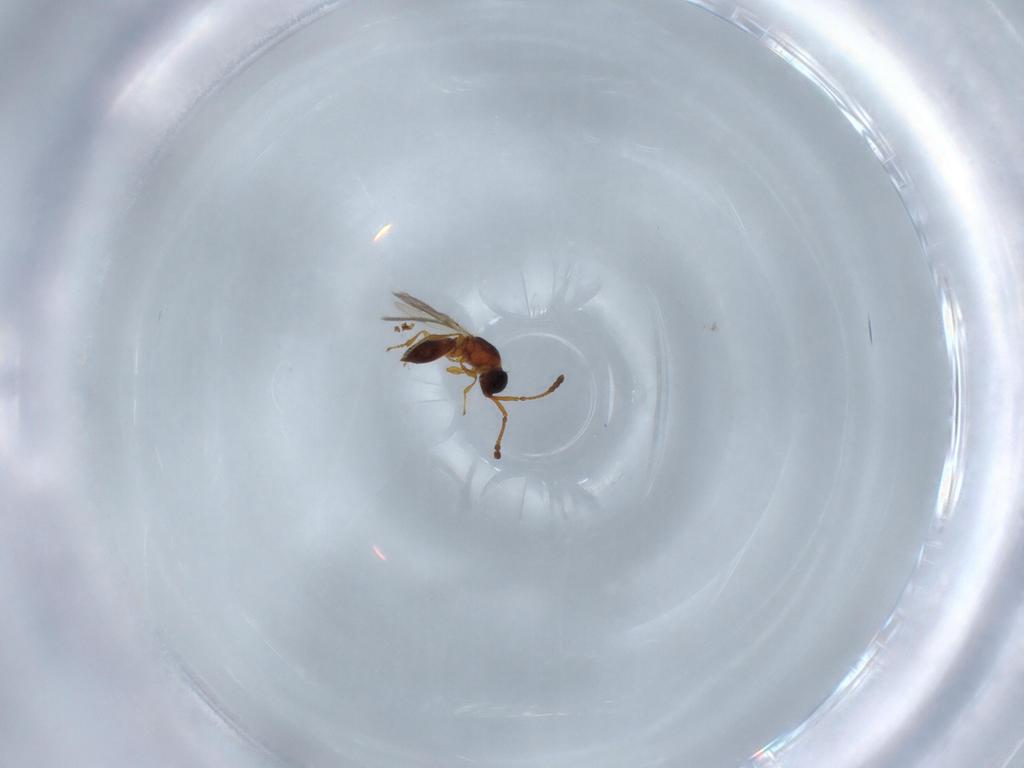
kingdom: Animalia
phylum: Arthropoda
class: Insecta
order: Hymenoptera
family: Diapriidae
